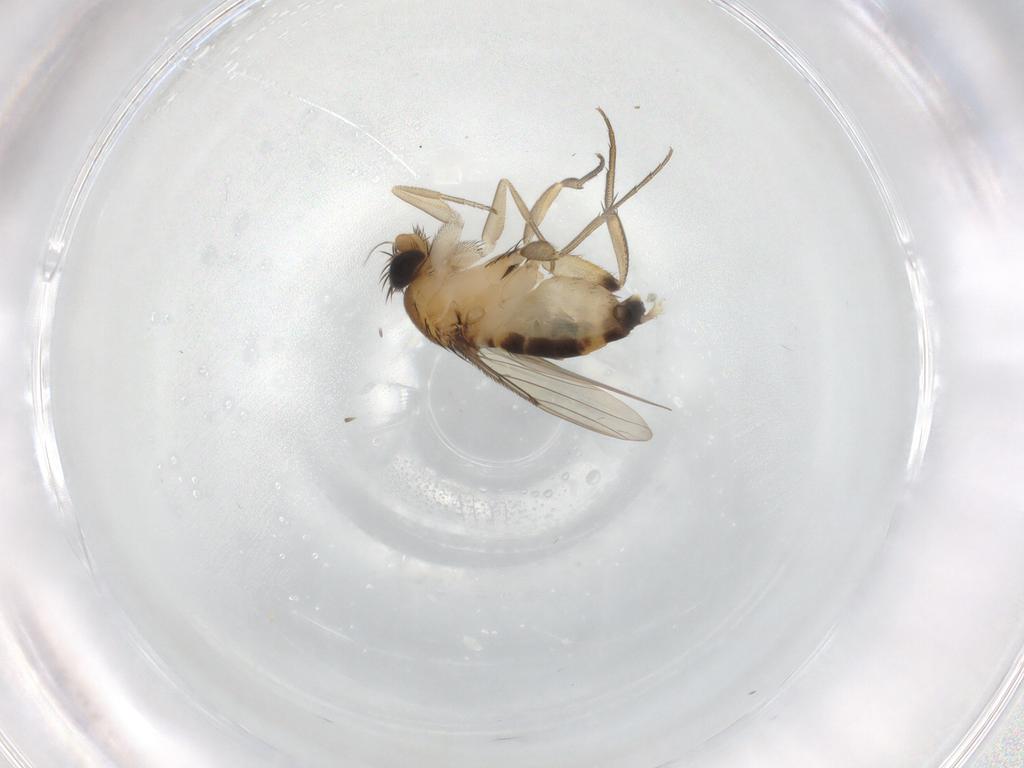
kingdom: Animalia
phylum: Arthropoda
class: Insecta
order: Diptera
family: Phoridae
